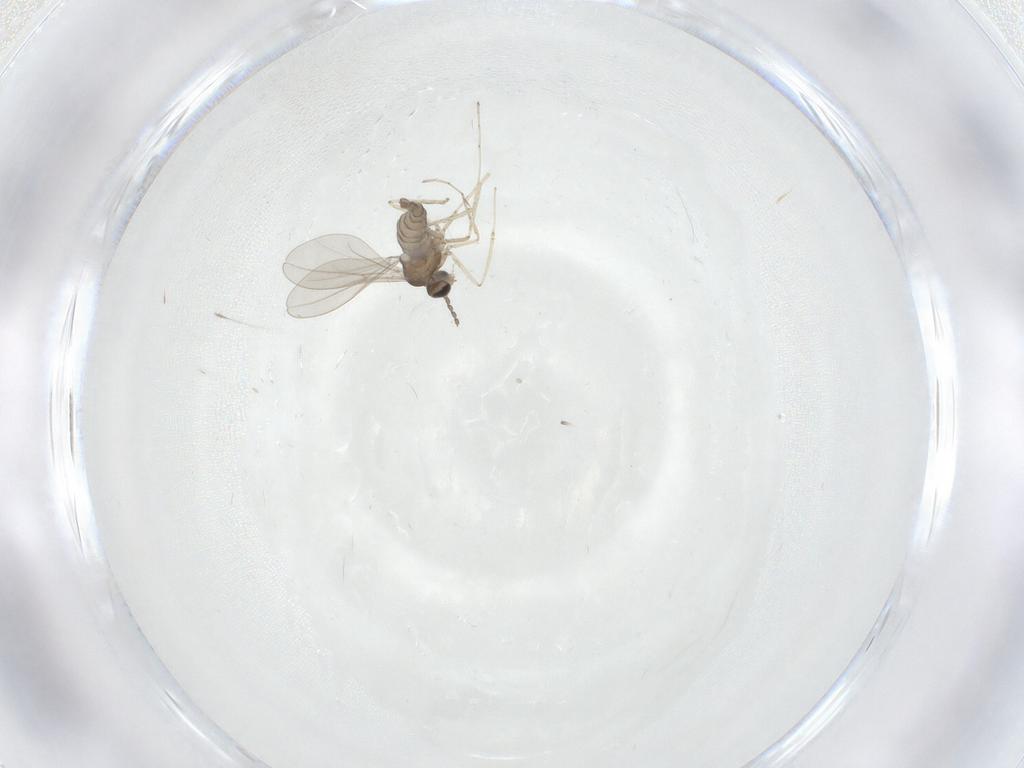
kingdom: Animalia
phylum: Arthropoda
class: Insecta
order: Diptera
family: Cecidomyiidae
